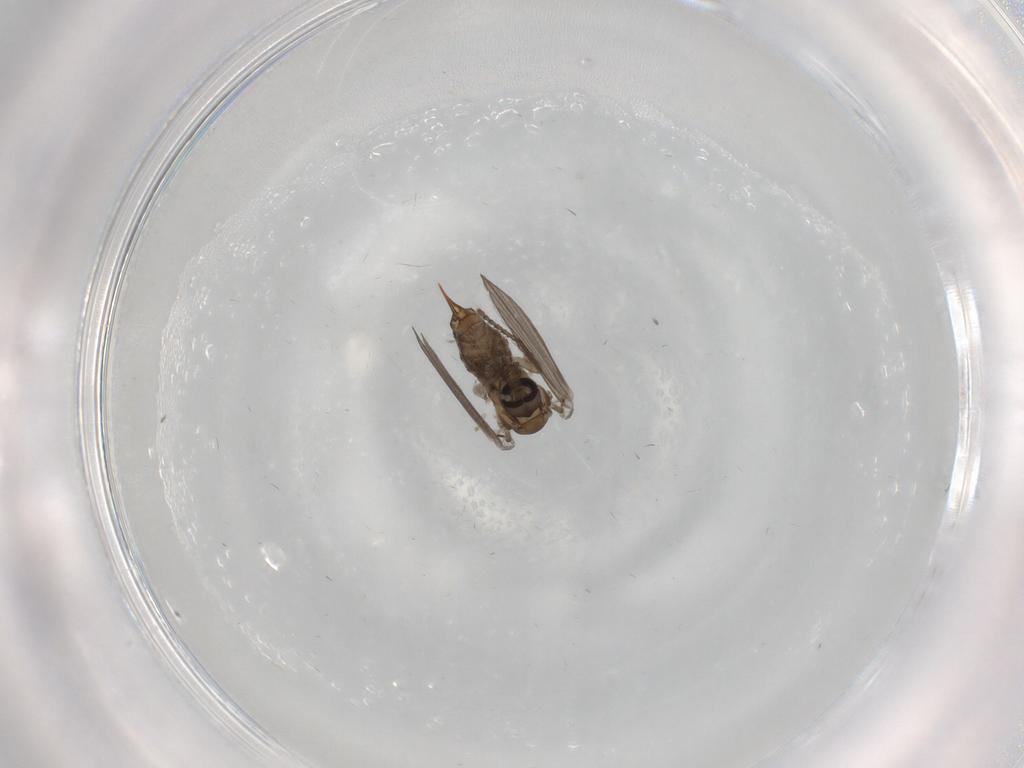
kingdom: Animalia
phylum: Arthropoda
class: Insecta
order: Diptera
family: Psychodidae
